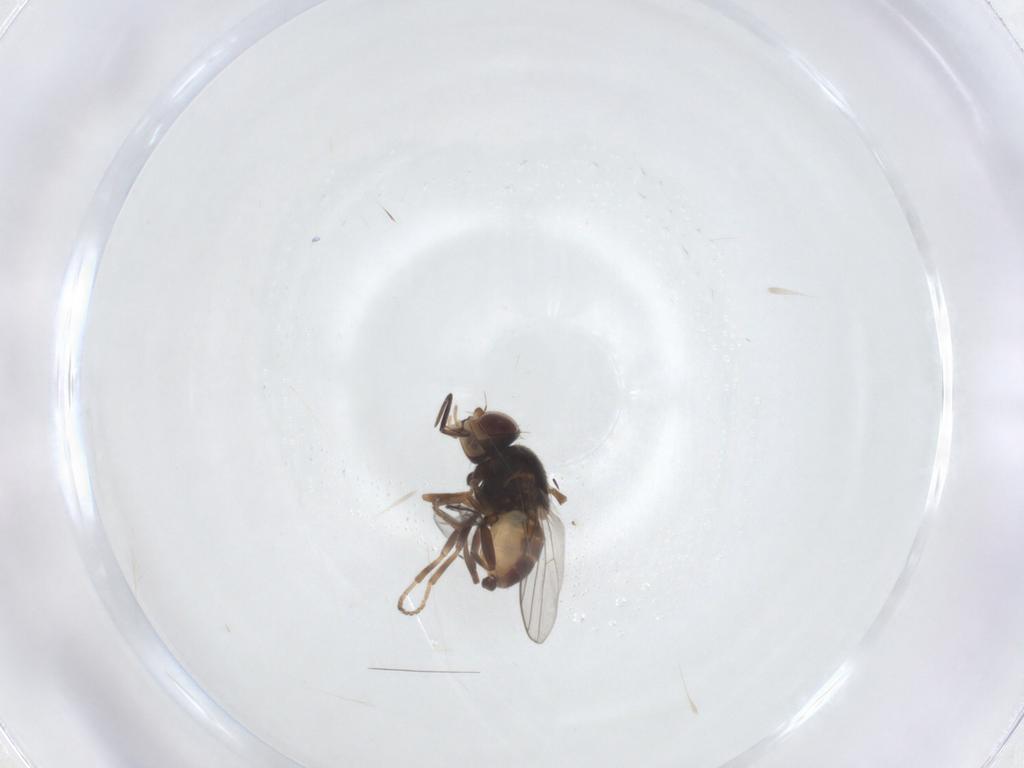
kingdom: Animalia
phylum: Arthropoda
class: Insecta
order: Diptera
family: Chloropidae
